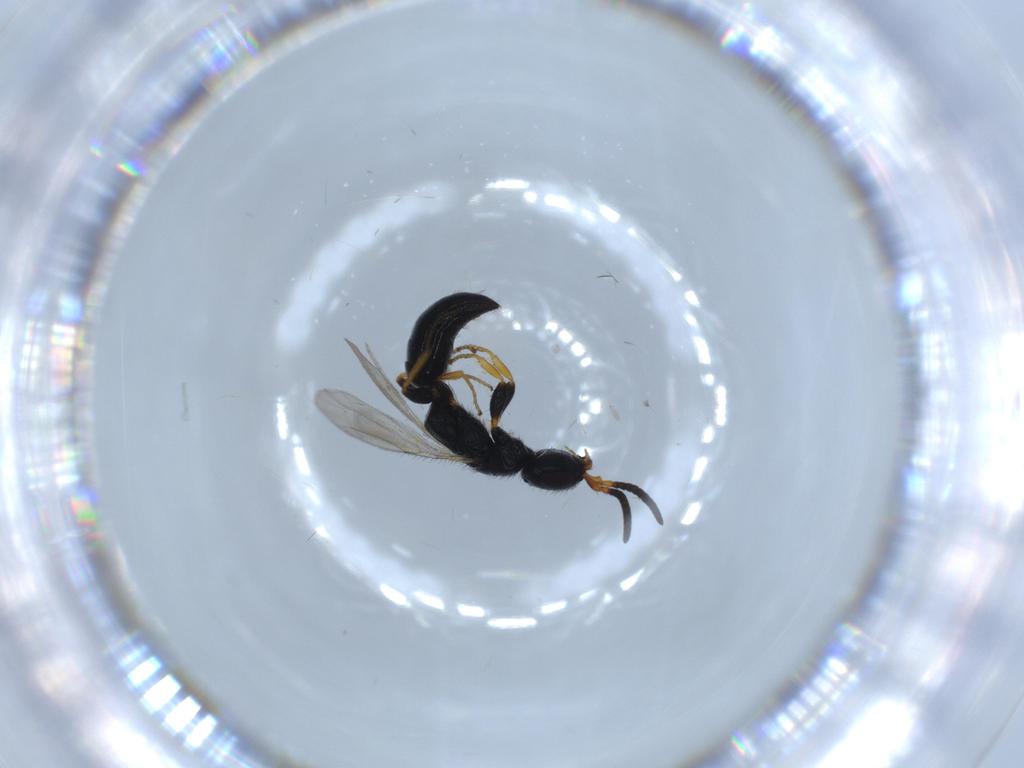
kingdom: Animalia
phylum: Arthropoda
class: Insecta
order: Hymenoptera
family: Bethylidae
